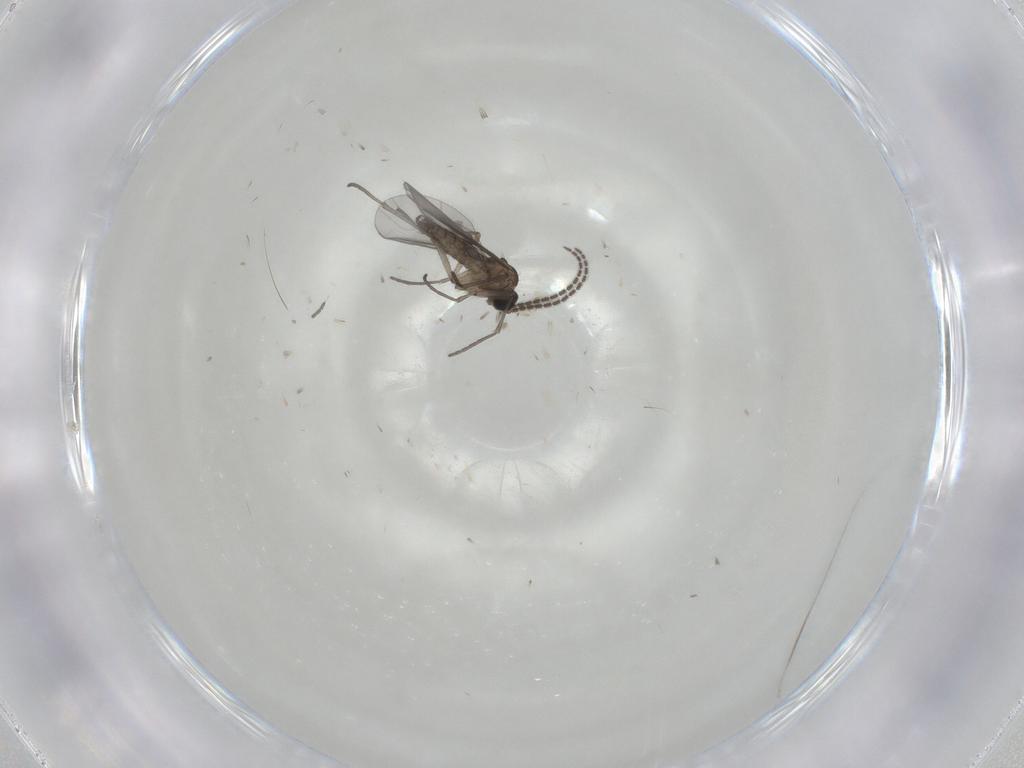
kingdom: Animalia
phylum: Arthropoda
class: Insecta
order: Diptera
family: Sciaridae
